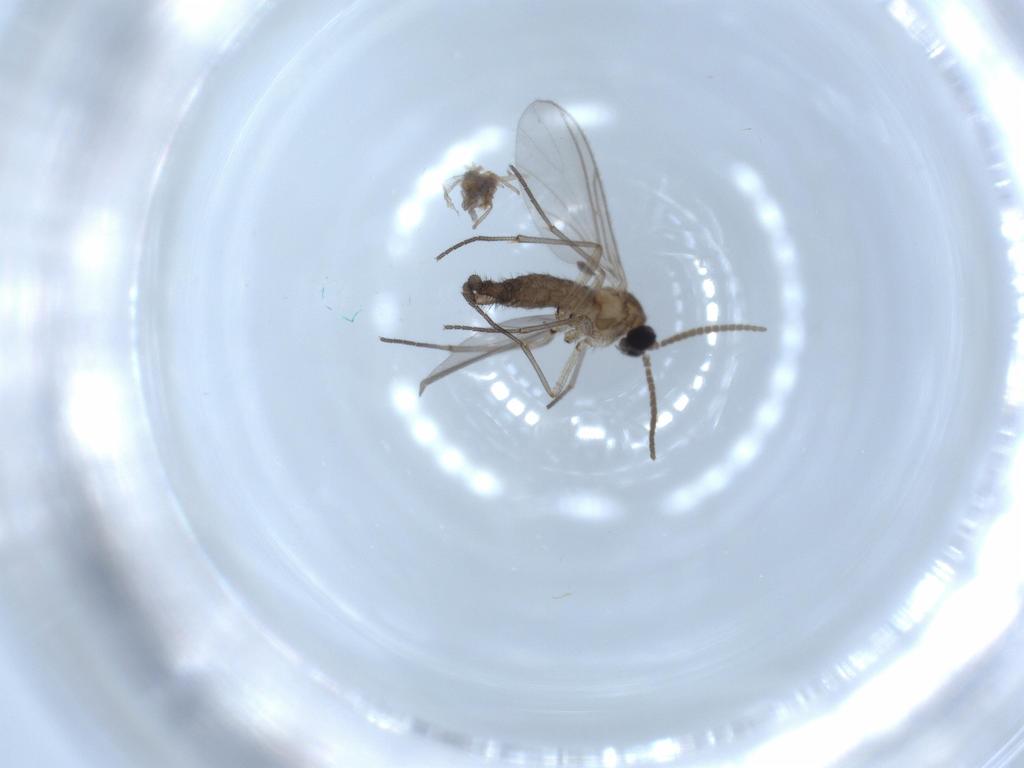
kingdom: Animalia
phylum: Arthropoda
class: Insecta
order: Diptera
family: Sciaridae
